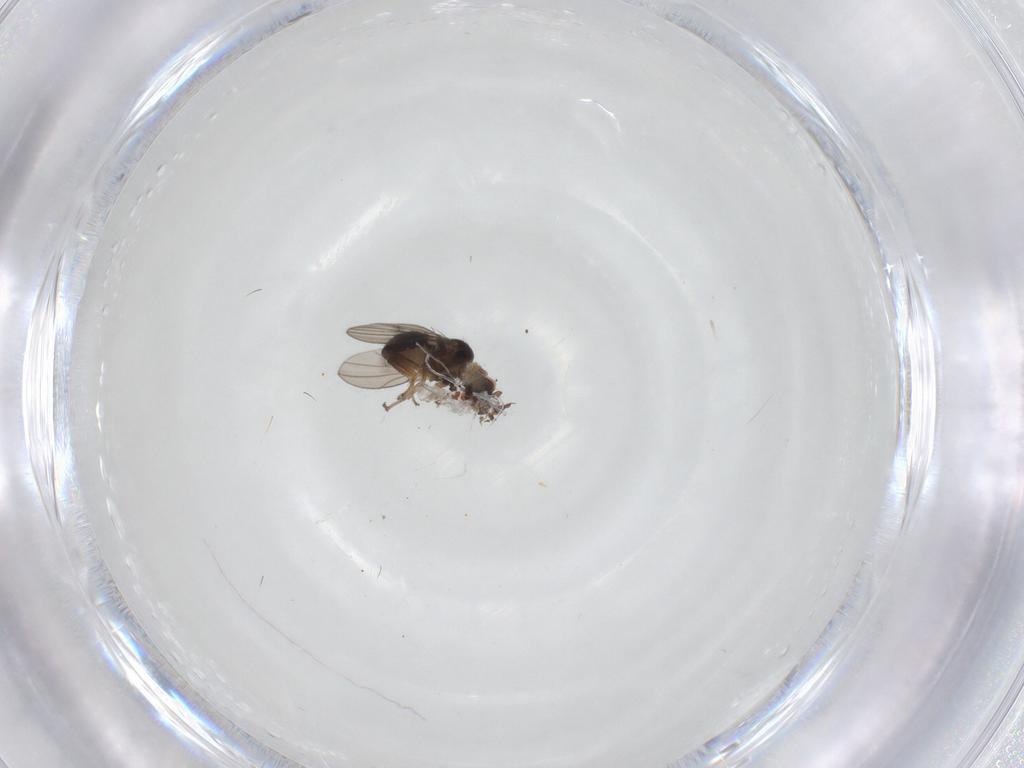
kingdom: Animalia
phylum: Arthropoda
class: Insecta
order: Diptera
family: Ephydridae
